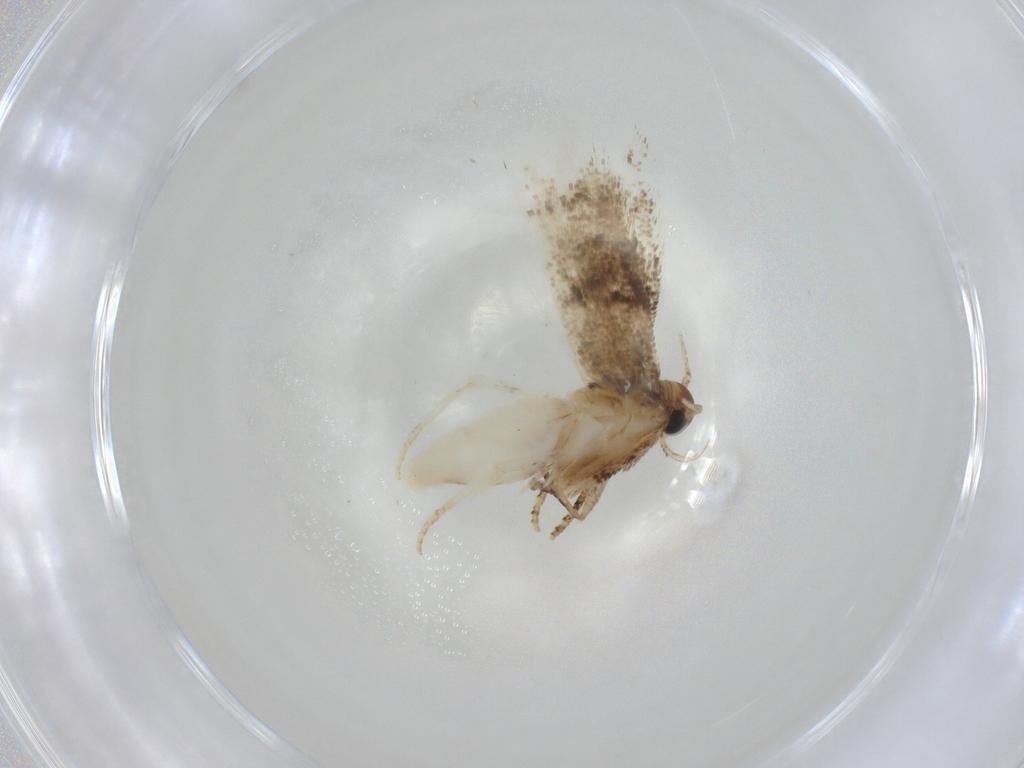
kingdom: Animalia
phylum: Arthropoda
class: Insecta
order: Lepidoptera
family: Gelechiidae
